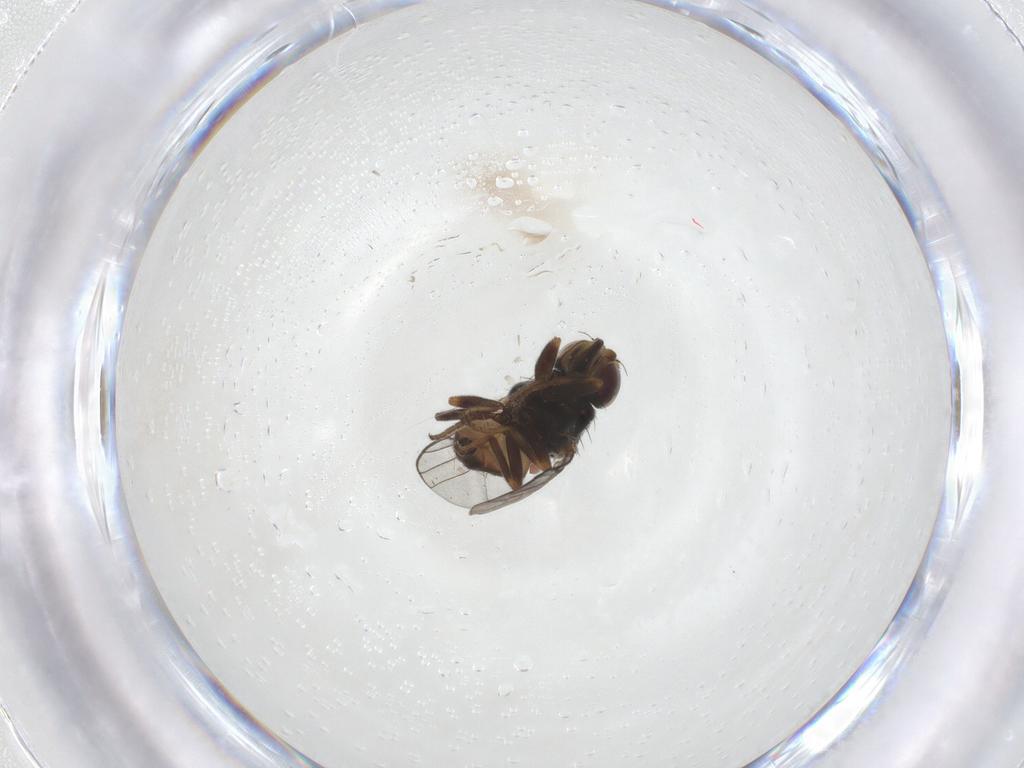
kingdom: Animalia
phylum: Arthropoda
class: Insecta
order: Diptera
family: Chloropidae
